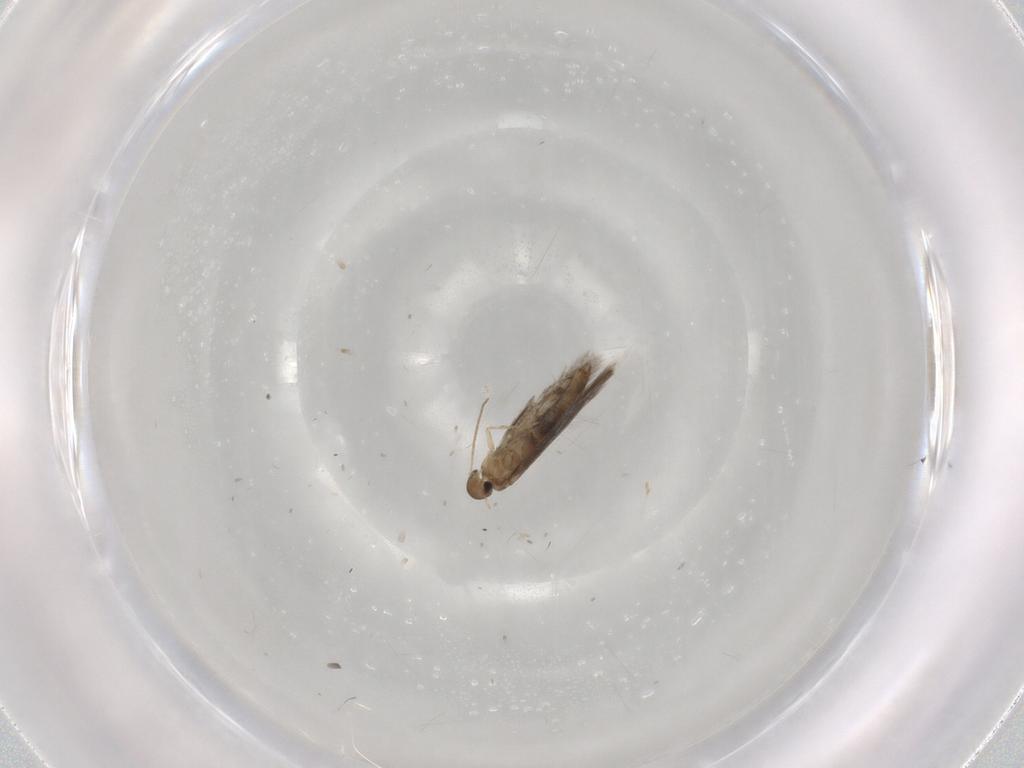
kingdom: Animalia
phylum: Arthropoda
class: Insecta
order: Lepidoptera
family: Heliozelidae
